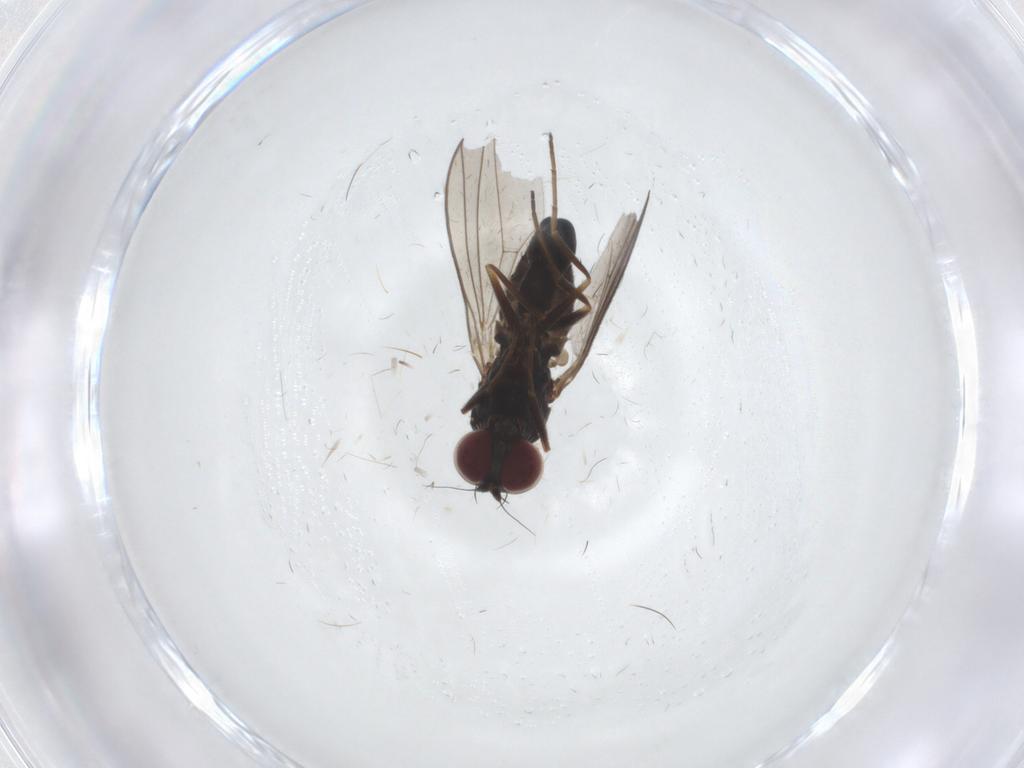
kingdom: Animalia
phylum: Arthropoda
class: Insecta
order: Diptera
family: Dolichopodidae
